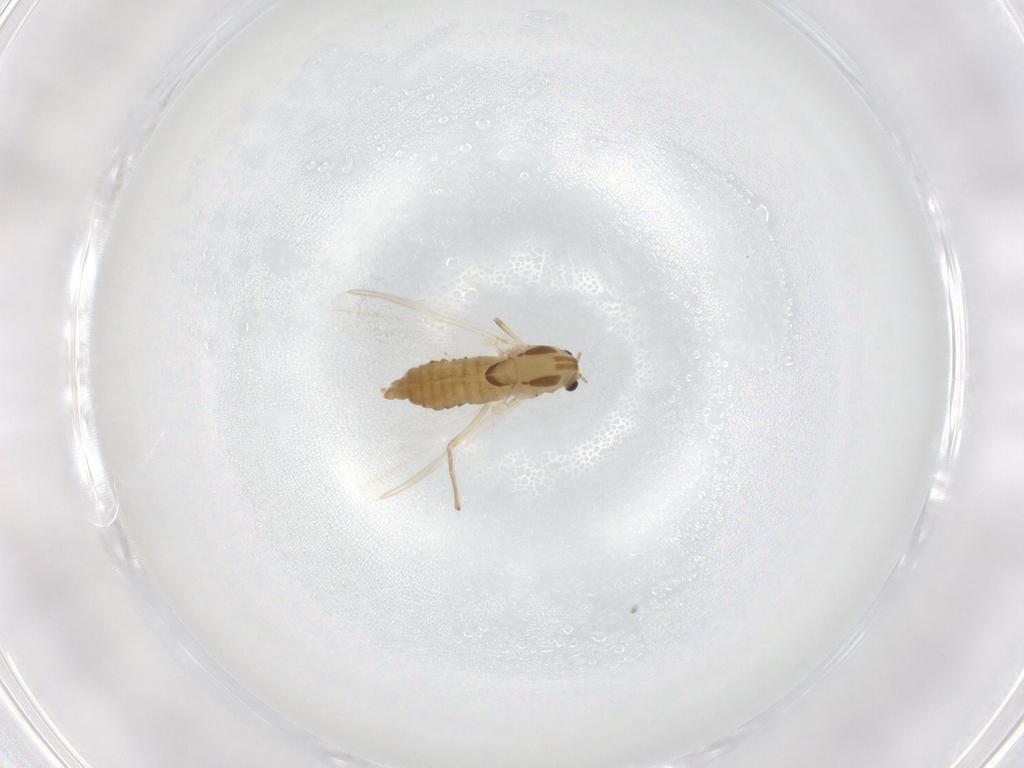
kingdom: Animalia
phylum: Arthropoda
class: Insecta
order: Diptera
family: Chironomidae
